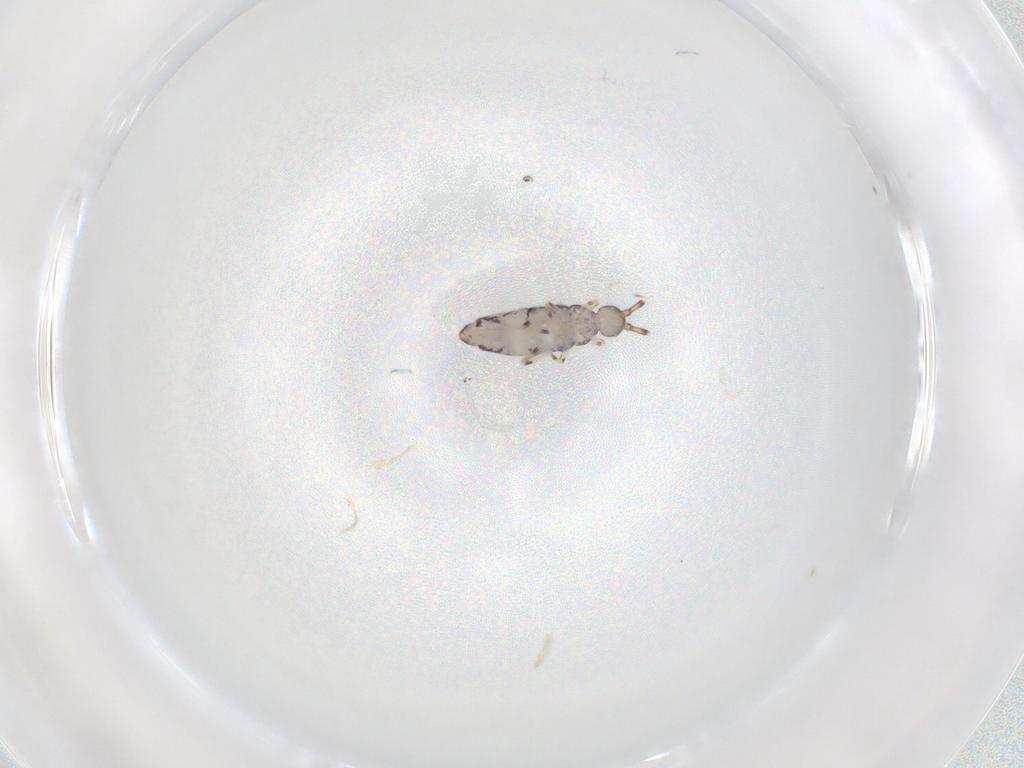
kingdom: Animalia
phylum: Arthropoda
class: Collembola
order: Entomobryomorpha
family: Entomobryidae
